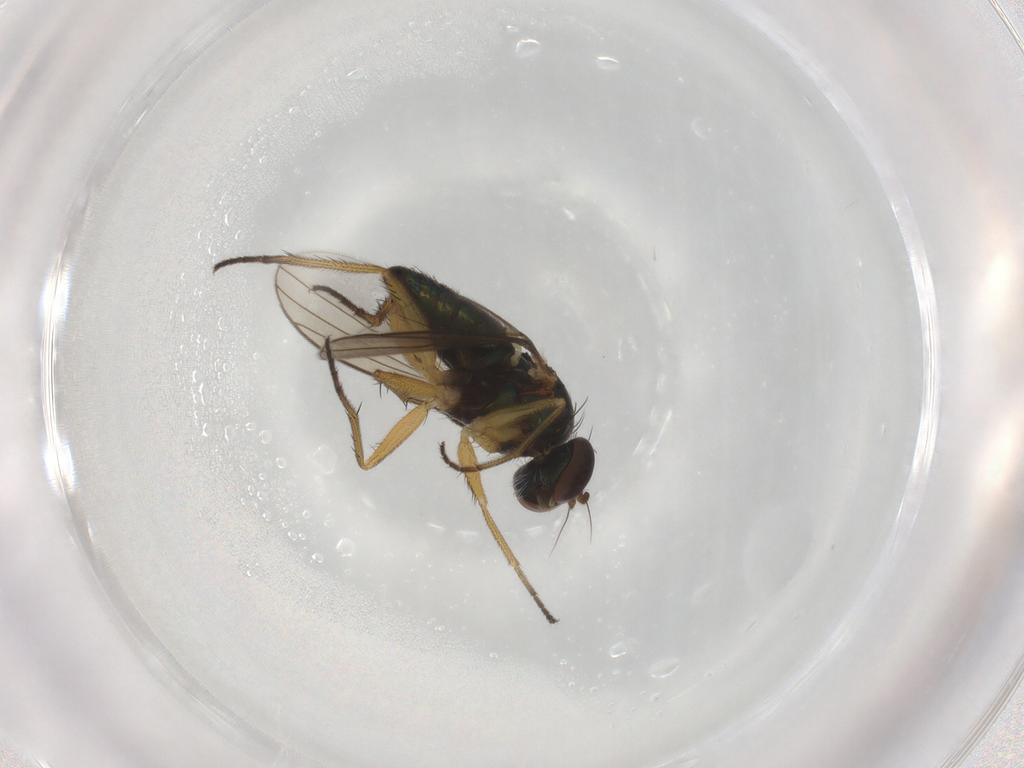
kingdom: Animalia
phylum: Arthropoda
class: Insecta
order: Diptera
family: Dolichopodidae
